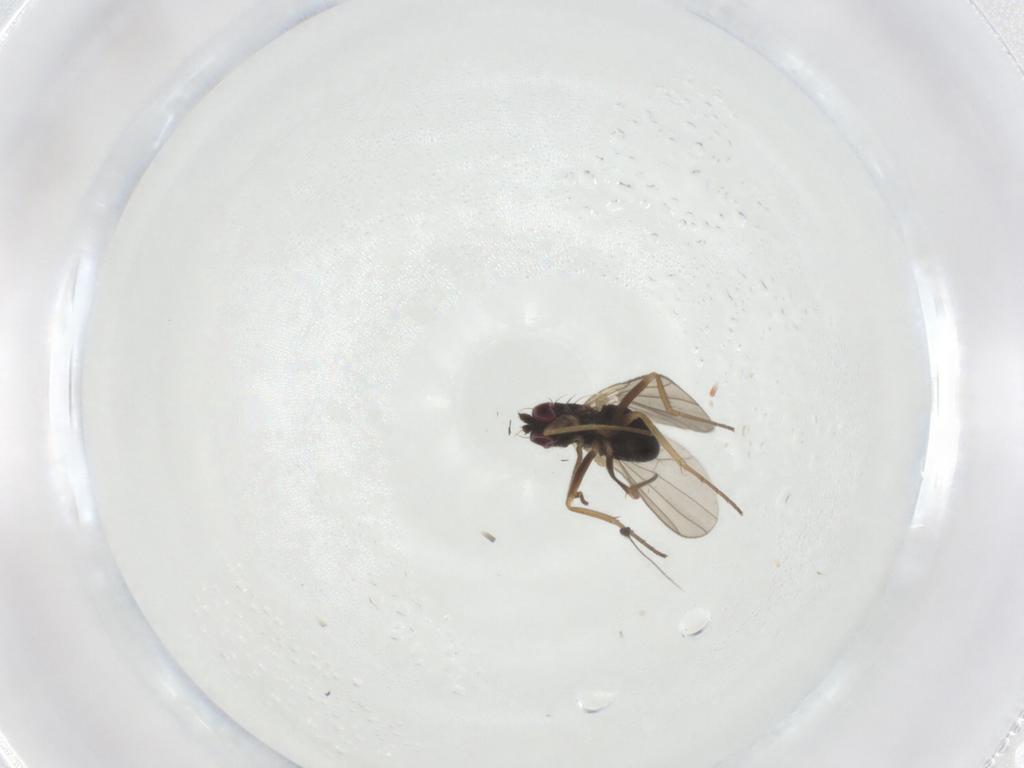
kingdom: Animalia
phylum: Arthropoda
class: Insecta
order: Diptera
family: Dolichopodidae
